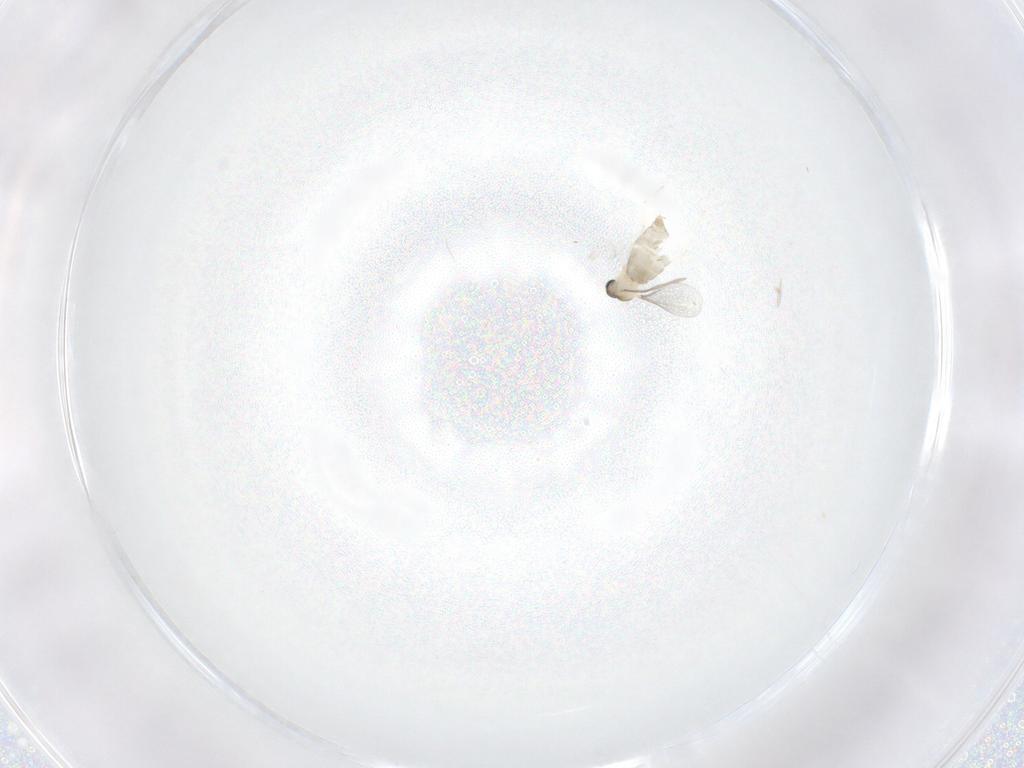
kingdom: Animalia
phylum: Arthropoda
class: Insecta
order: Diptera
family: Cecidomyiidae
